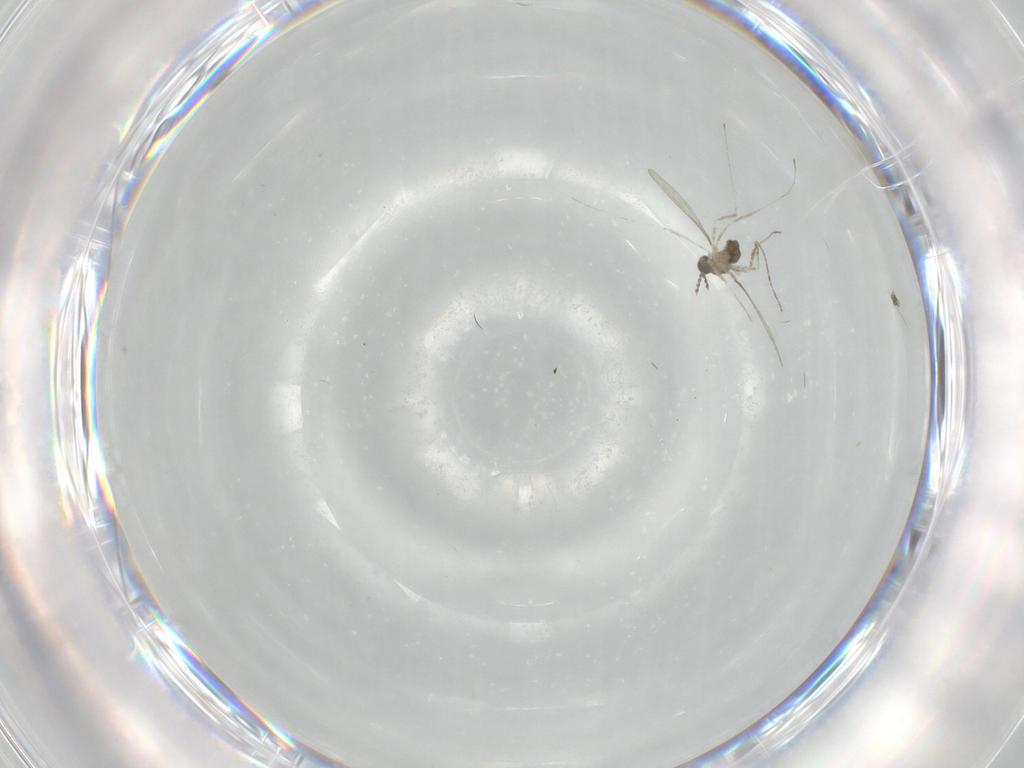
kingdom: Animalia
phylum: Arthropoda
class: Insecta
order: Diptera
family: Cecidomyiidae
